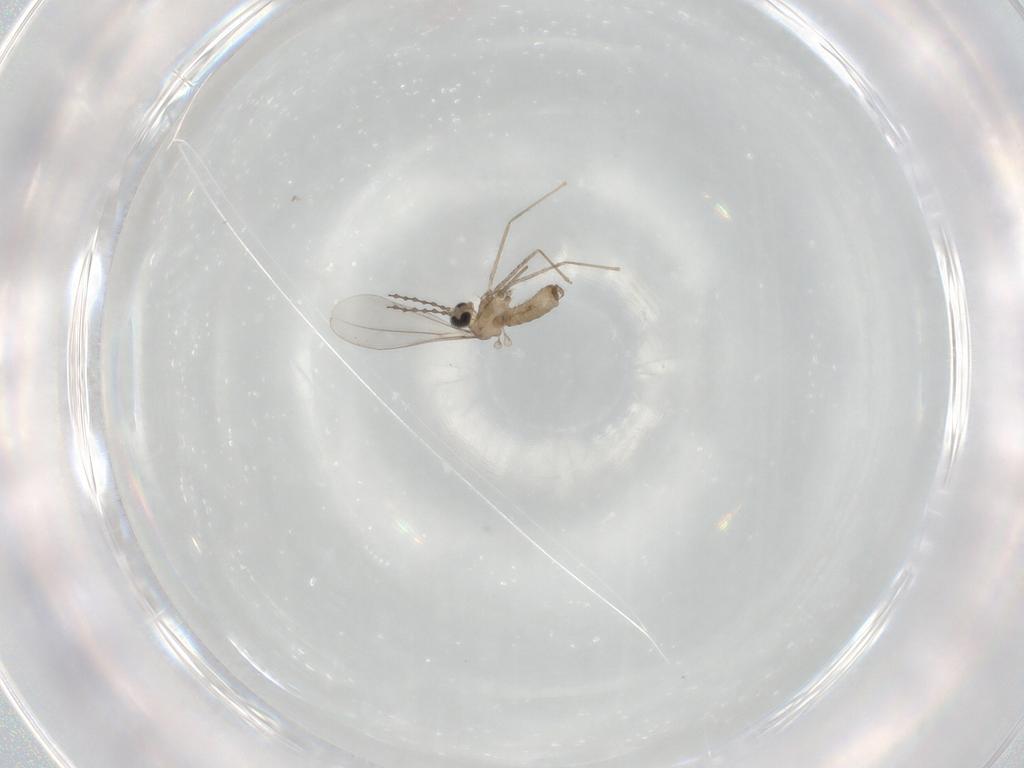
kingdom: Animalia
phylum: Arthropoda
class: Insecta
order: Diptera
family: Cecidomyiidae
